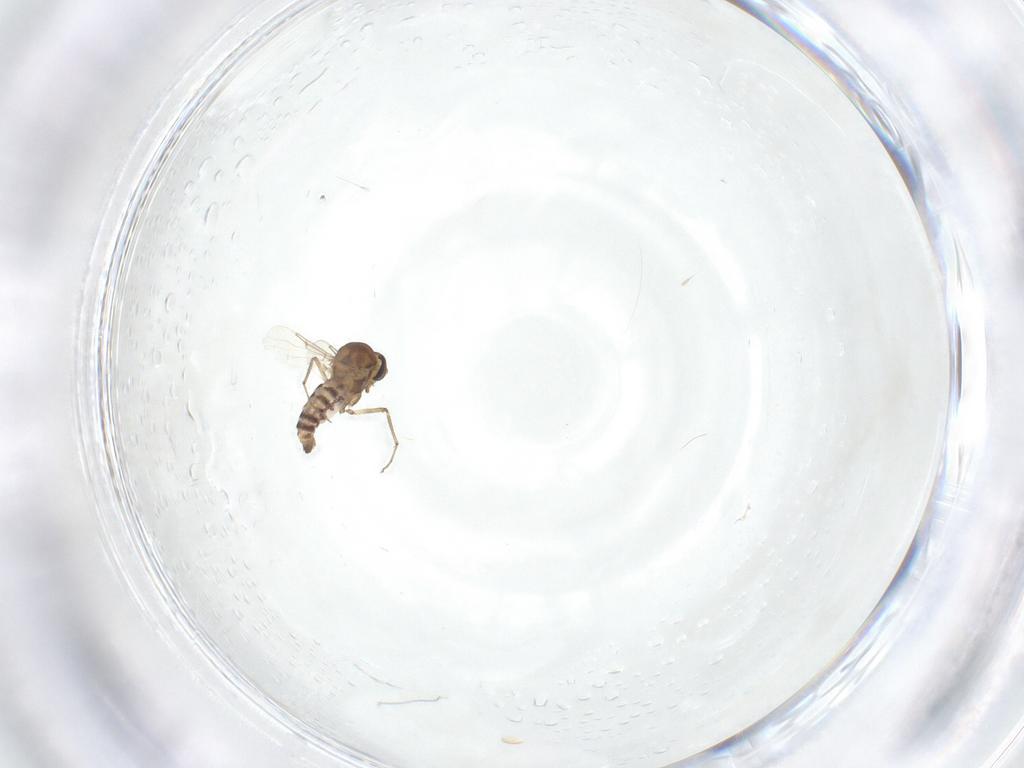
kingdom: Animalia
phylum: Arthropoda
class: Insecta
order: Diptera
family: Ceratopogonidae
